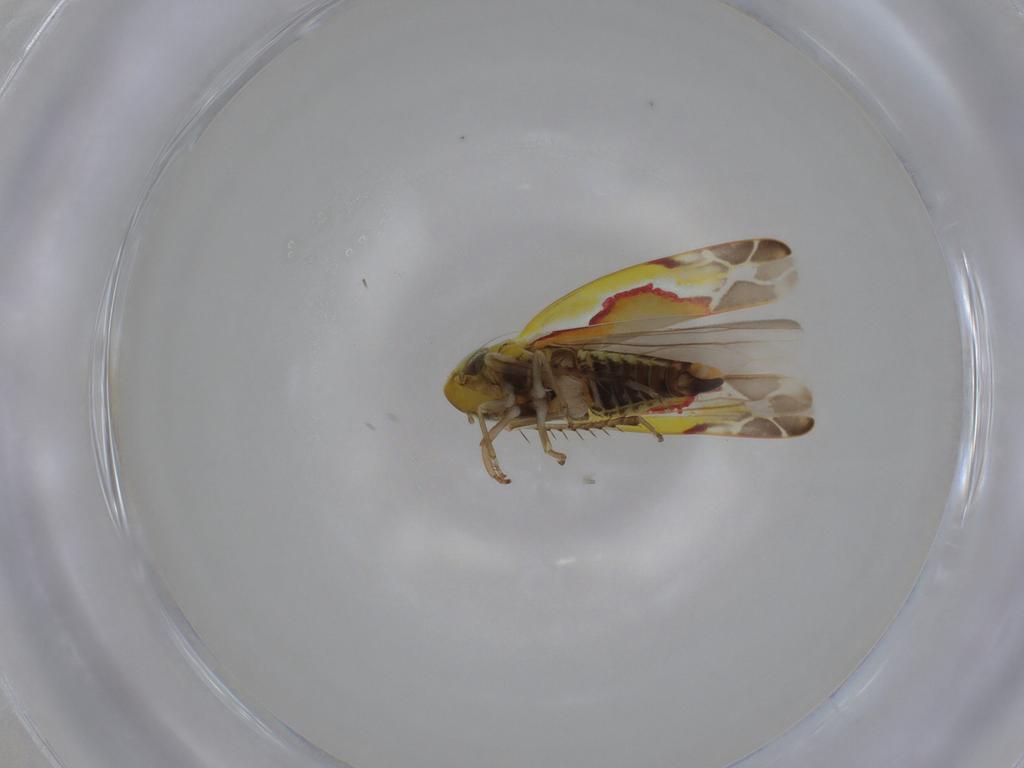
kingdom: Animalia
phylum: Arthropoda
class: Insecta
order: Hemiptera
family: Cicadellidae
